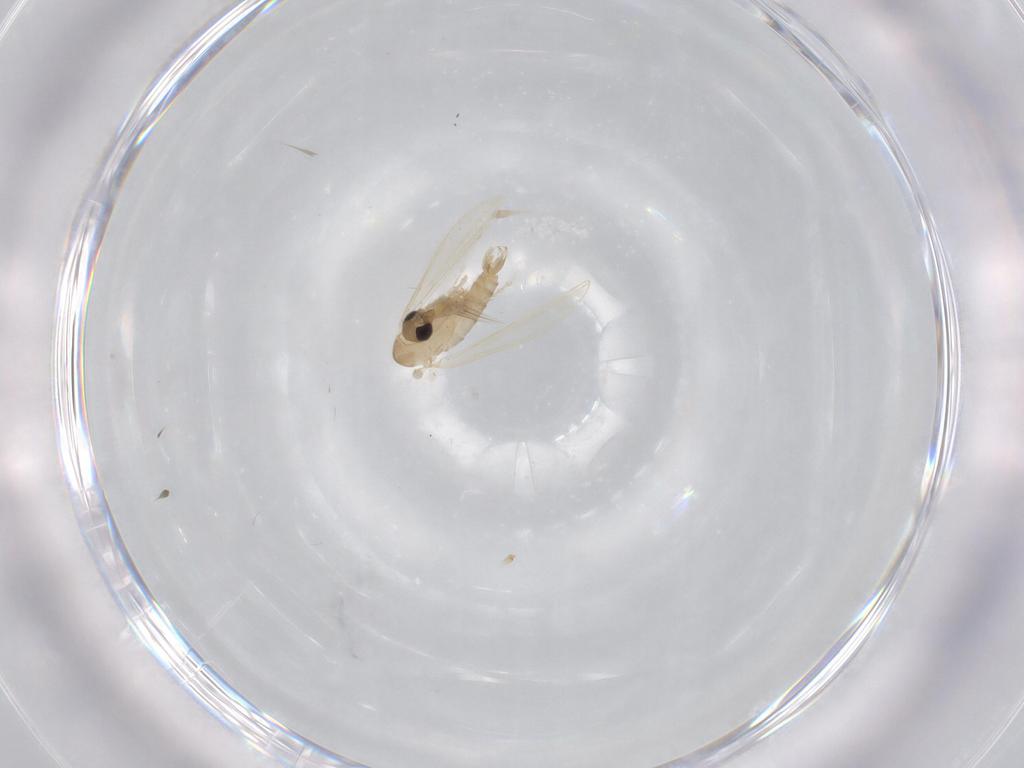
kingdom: Animalia
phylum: Arthropoda
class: Insecta
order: Diptera
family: Psychodidae
